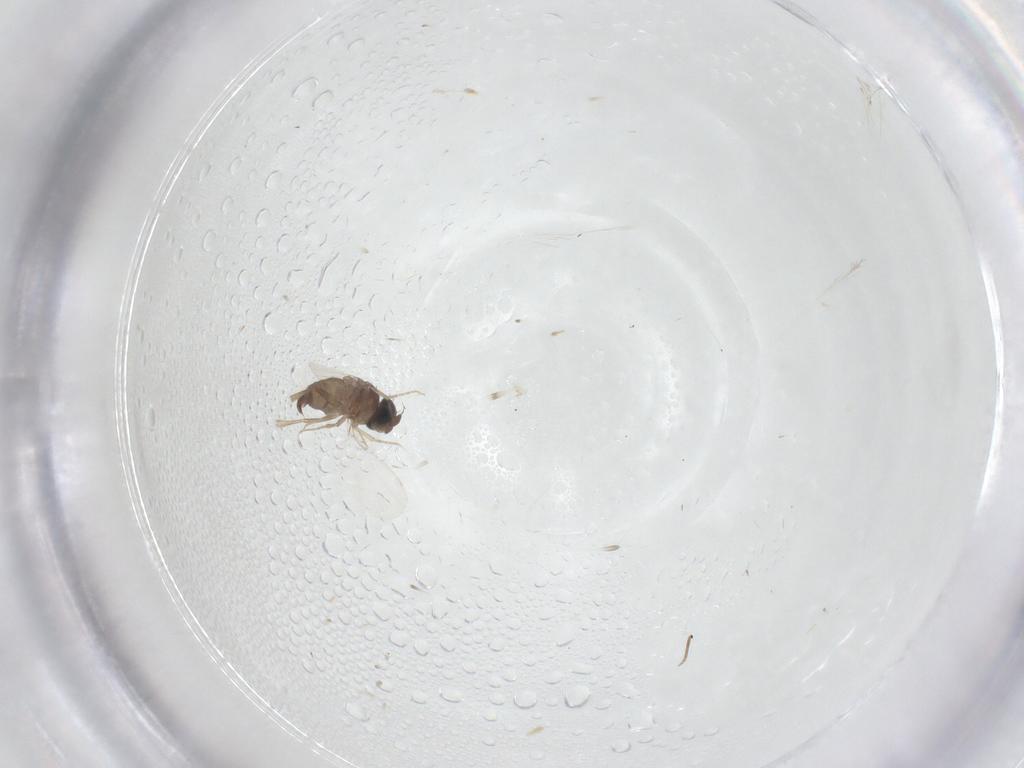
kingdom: Animalia
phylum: Arthropoda
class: Insecta
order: Diptera
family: Phoridae
